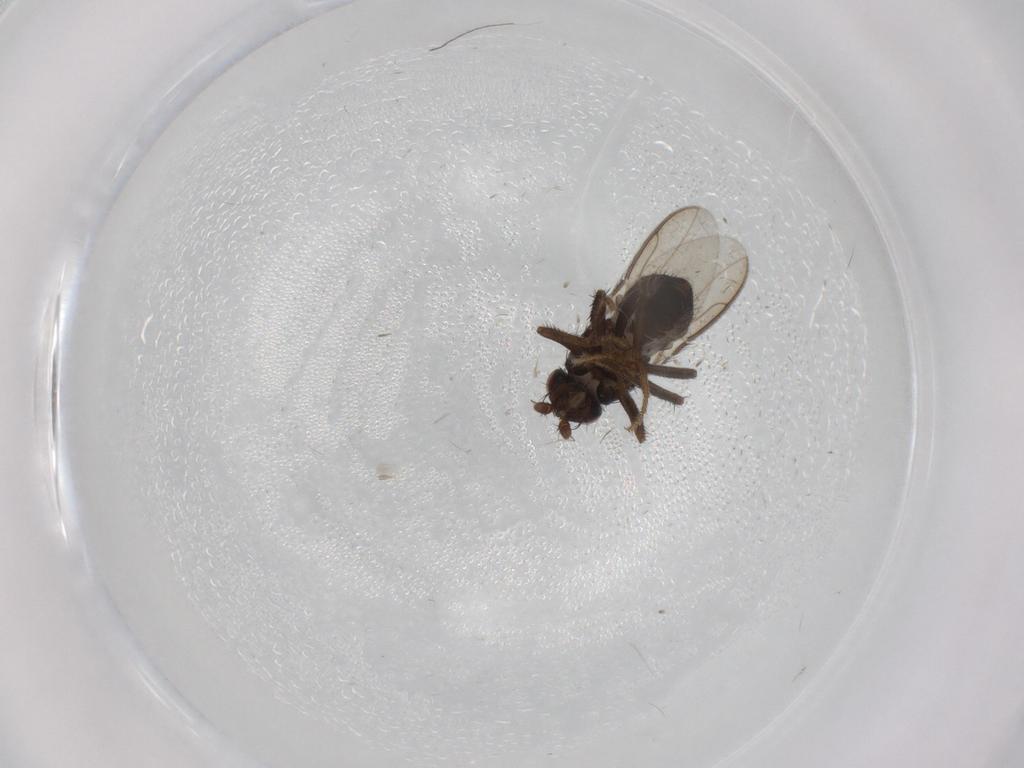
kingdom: Animalia
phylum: Arthropoda
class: Insecta
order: Diptera
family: Sphaeroceridae
